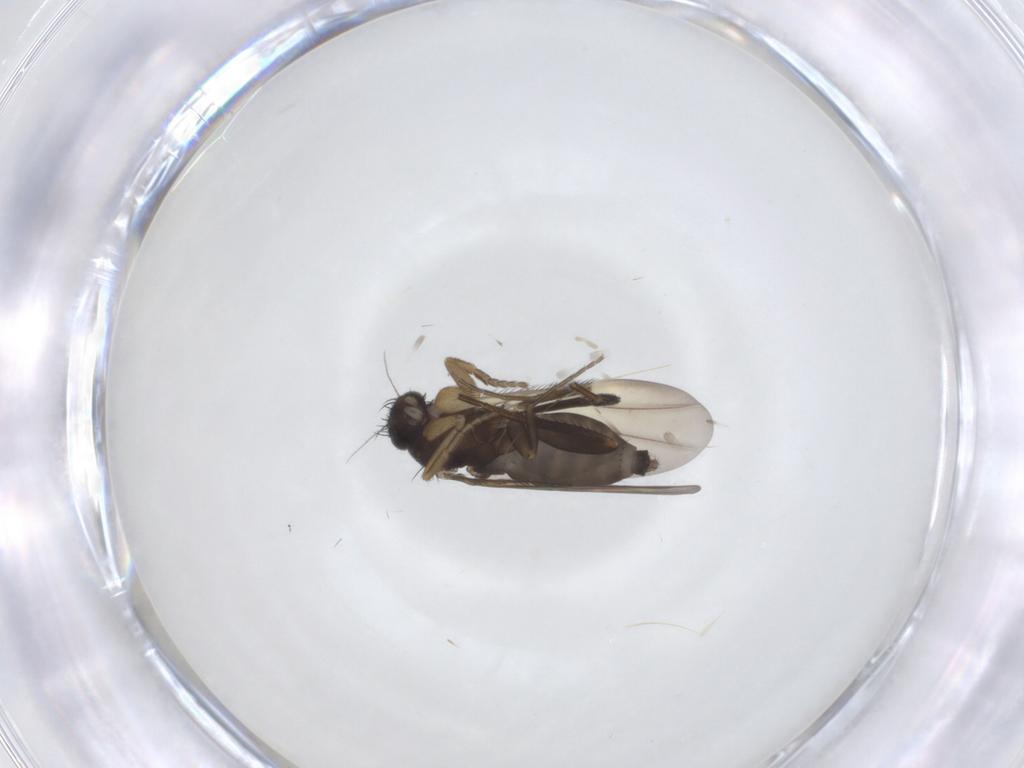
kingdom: Animalia
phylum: Arthropoda
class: Insecta
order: Diptera
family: Phoridae
